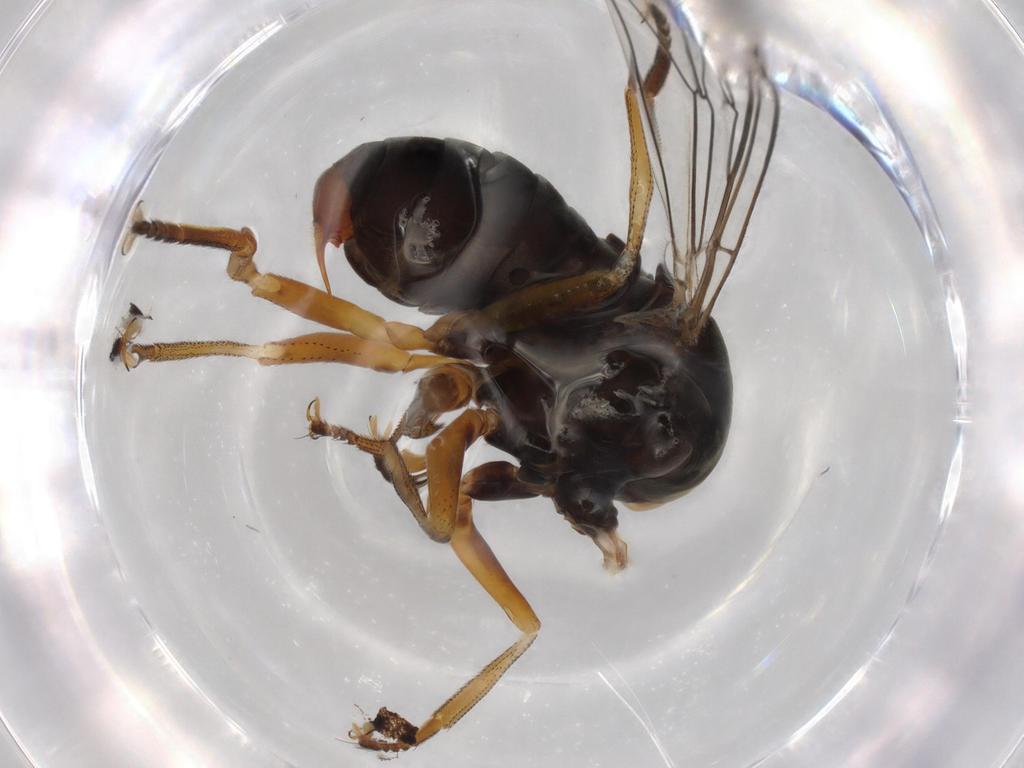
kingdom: Animalia
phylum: Arthropoda
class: Insecta
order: Diptera
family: Pipunculidae
